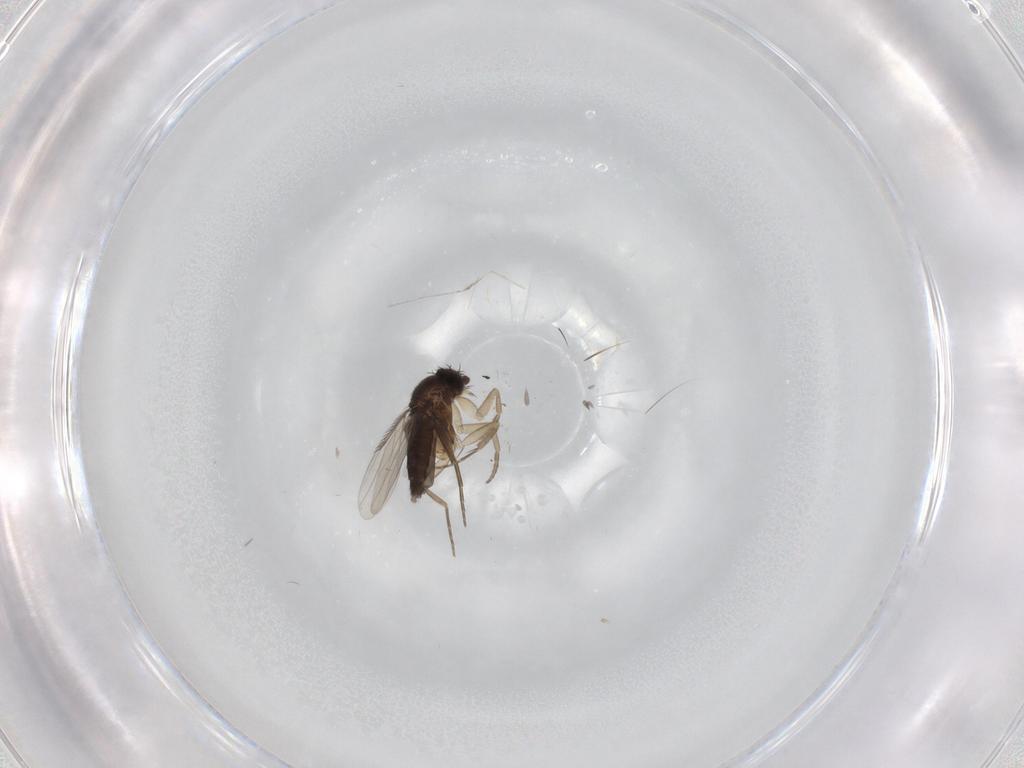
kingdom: Animalia
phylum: Arthropoda
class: Insecta
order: Diptera
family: Phoridae
